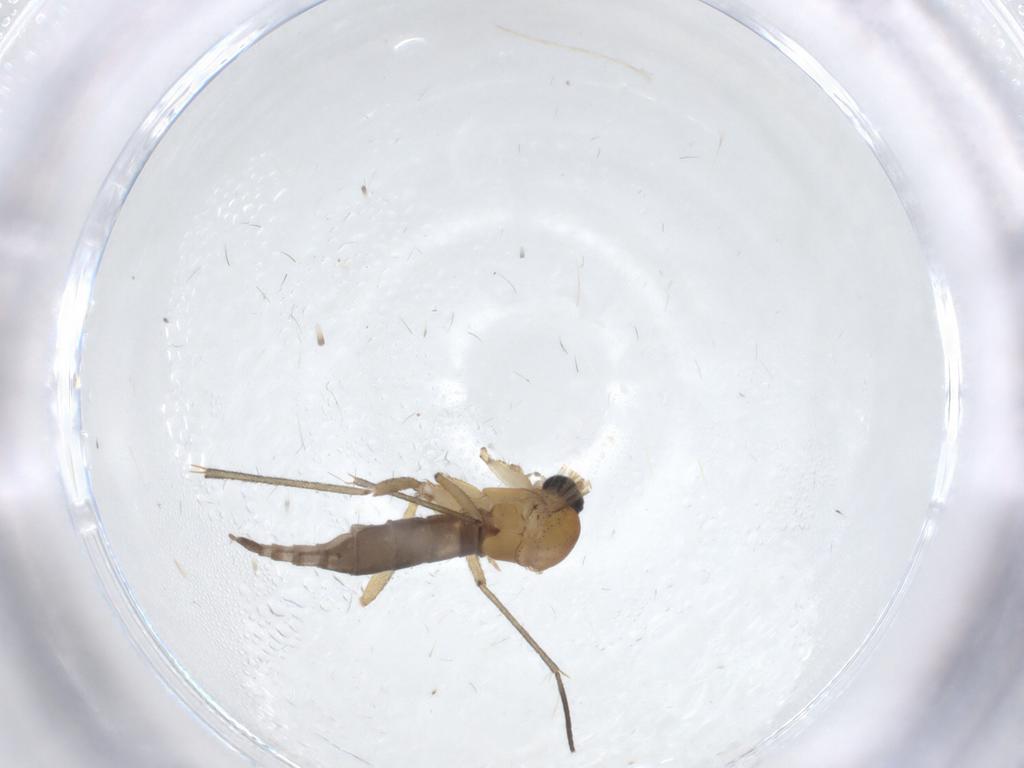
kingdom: Animalia
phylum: Arthropoda
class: Insecta
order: Diptera
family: Sciaridae
